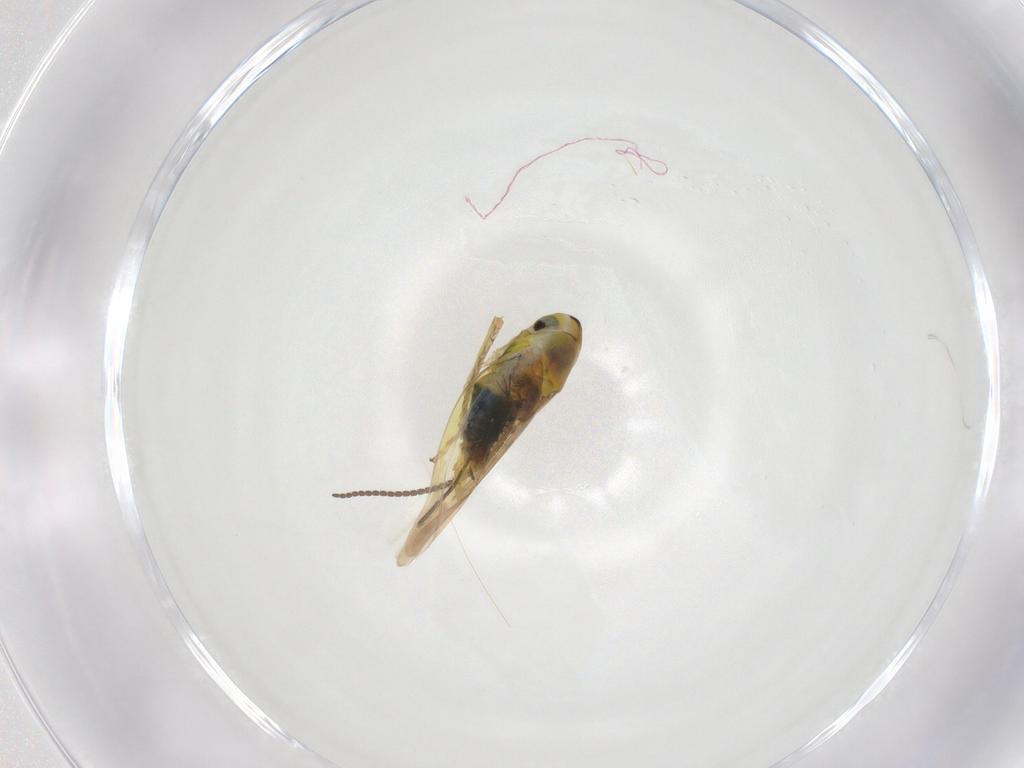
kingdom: Animalia
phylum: Arthropoda
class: Insecta
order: Hemiptera
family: Cicadellidae
